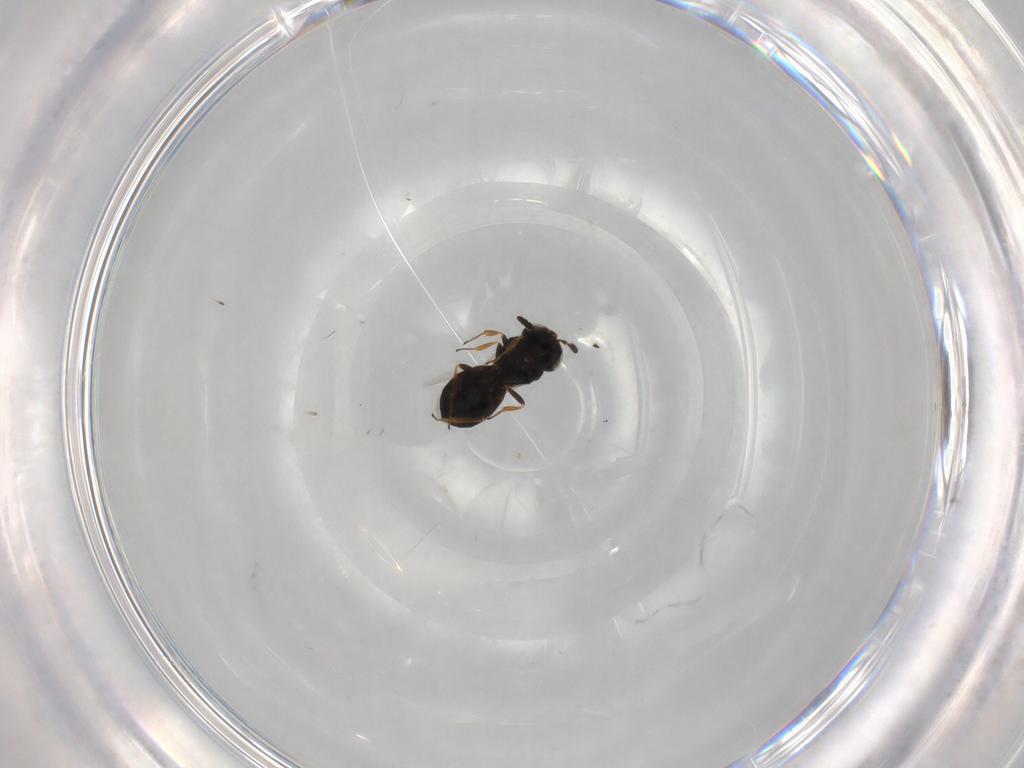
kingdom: Animalia
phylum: Arthropoda
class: Insecta
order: Hymenoptera
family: Scelionidae
